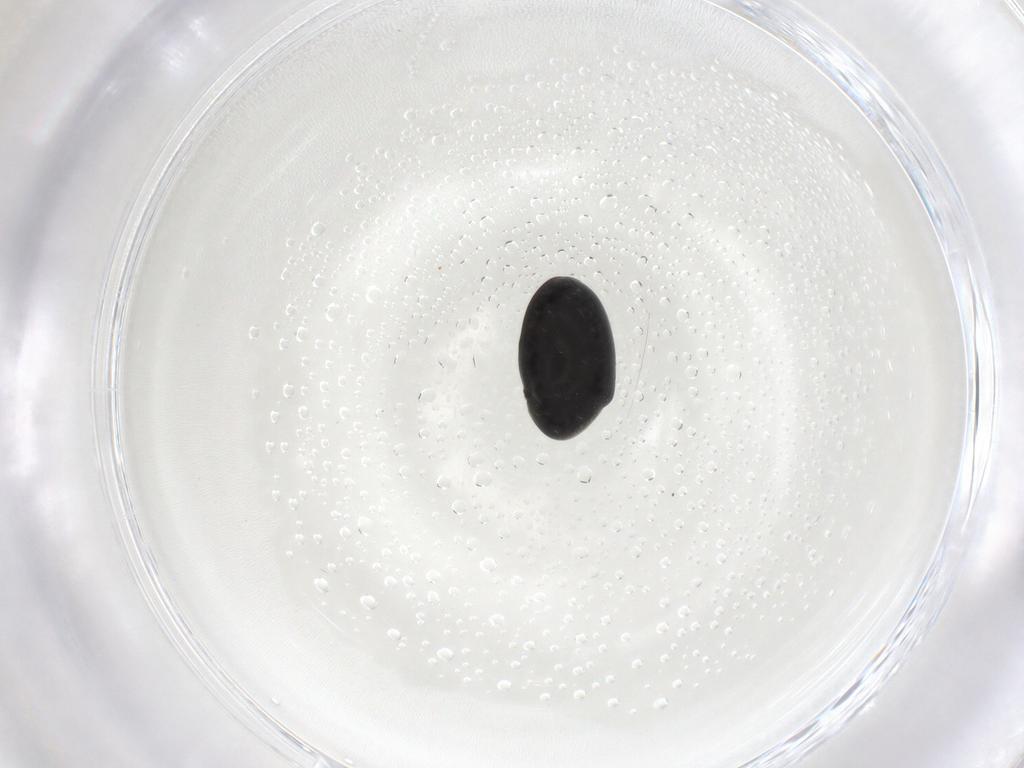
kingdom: Animalia
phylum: Arthropoda
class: Insecta
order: Coleoptera
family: Ptinidae
